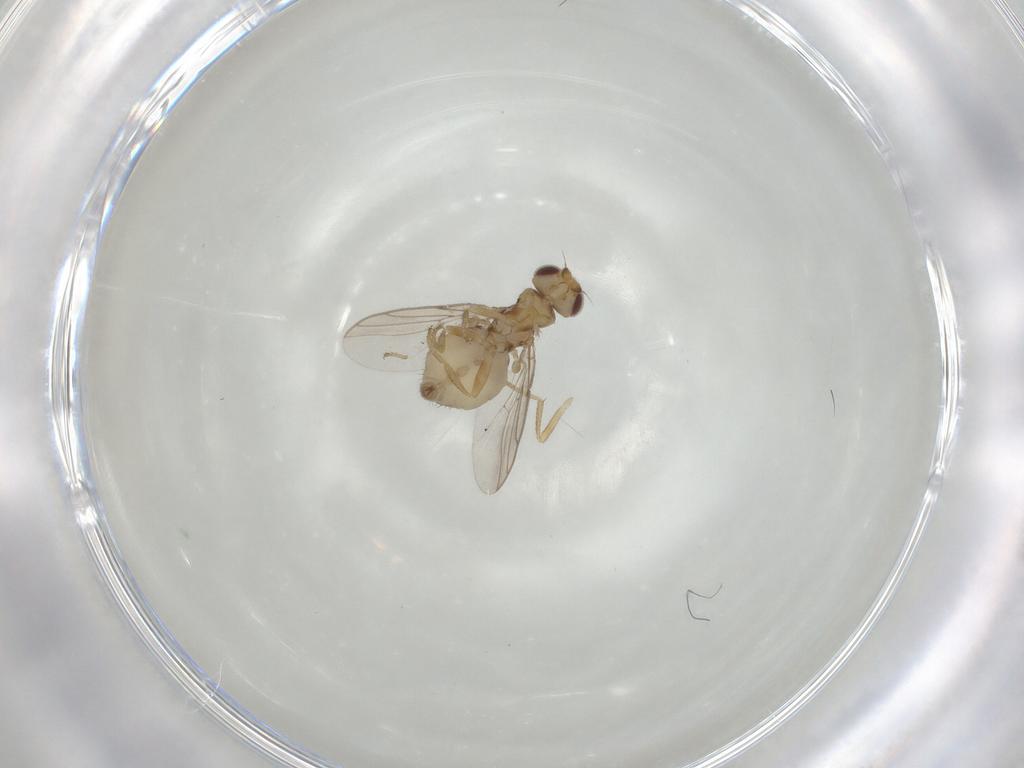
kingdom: Animalia
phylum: Arthropoda
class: Insecta
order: Diptera
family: Chloropidae
